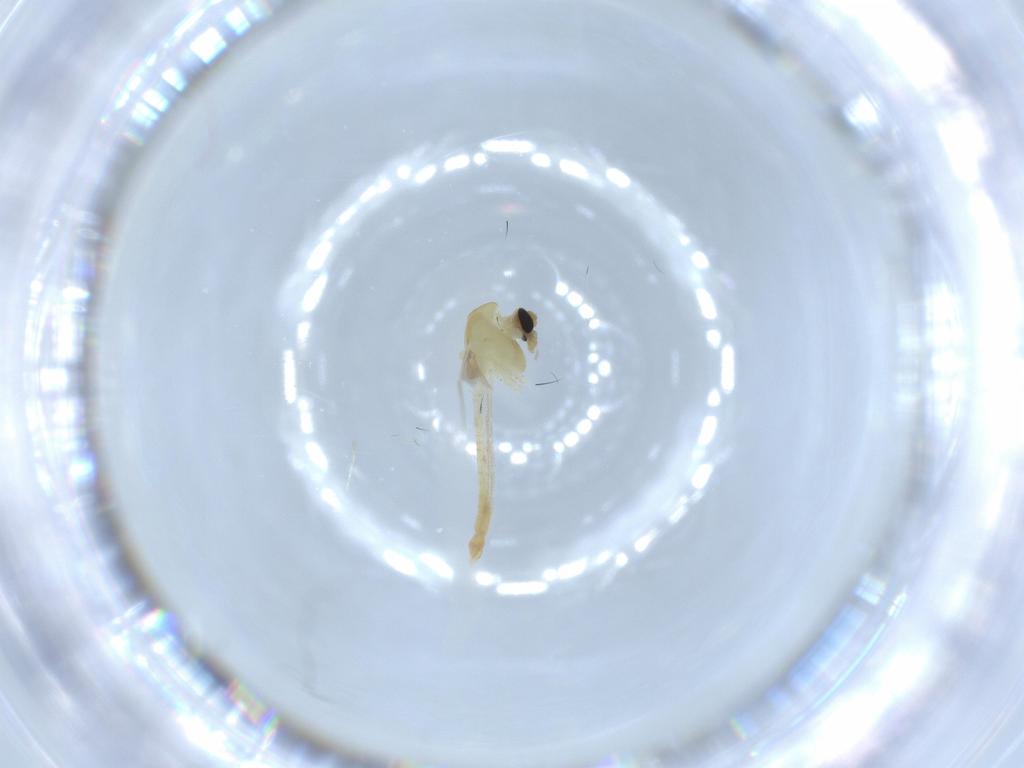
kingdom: Animalia
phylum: Arthropoda
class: Insecta
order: Diptera
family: Chironomidae
